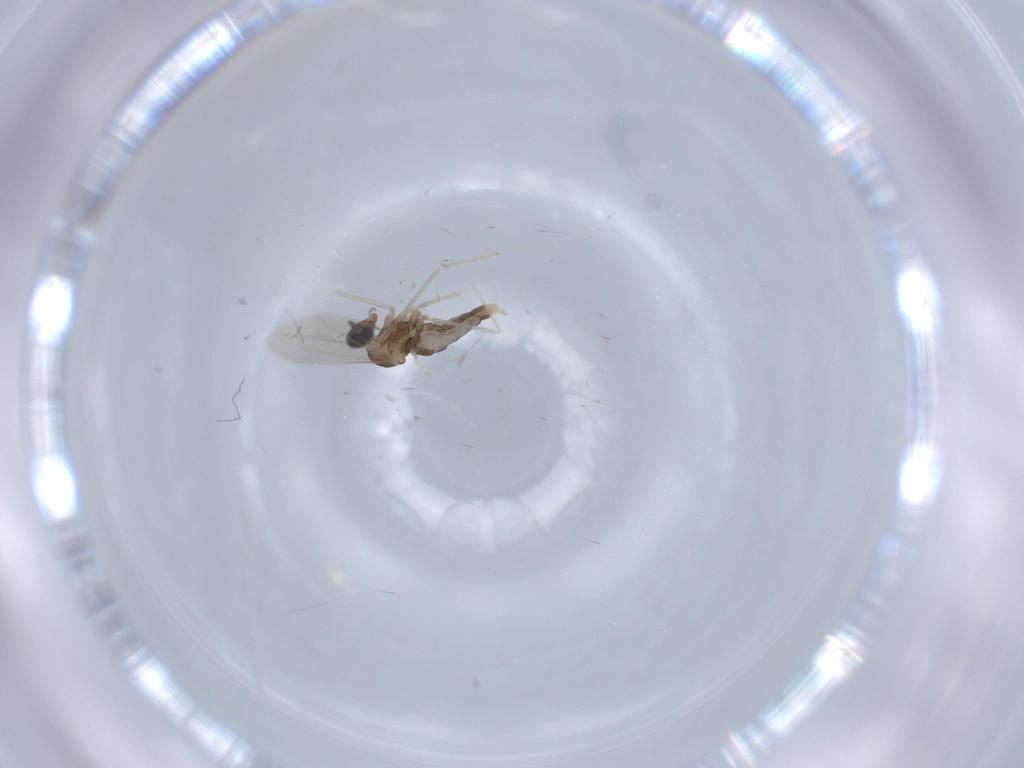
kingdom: Animalia
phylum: Arthropoda
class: Insecta
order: Diptera
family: Cecidomyiidae
